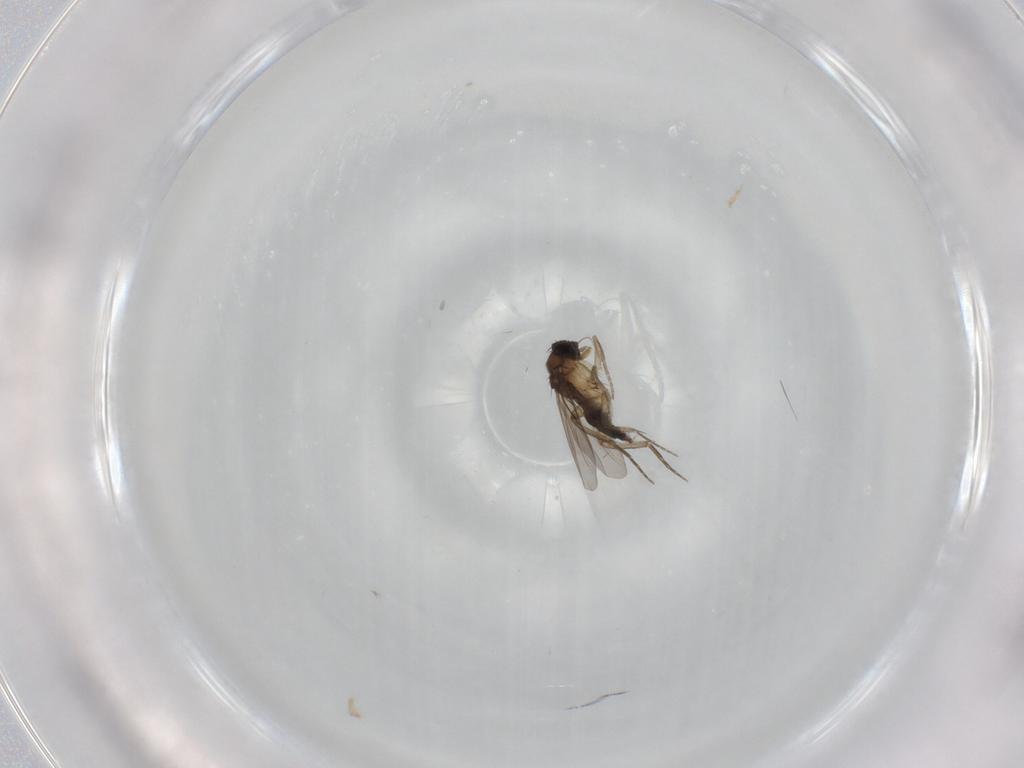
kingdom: Animalia
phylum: Arthropoda
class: Insecta
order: Diptera
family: Phoridae
